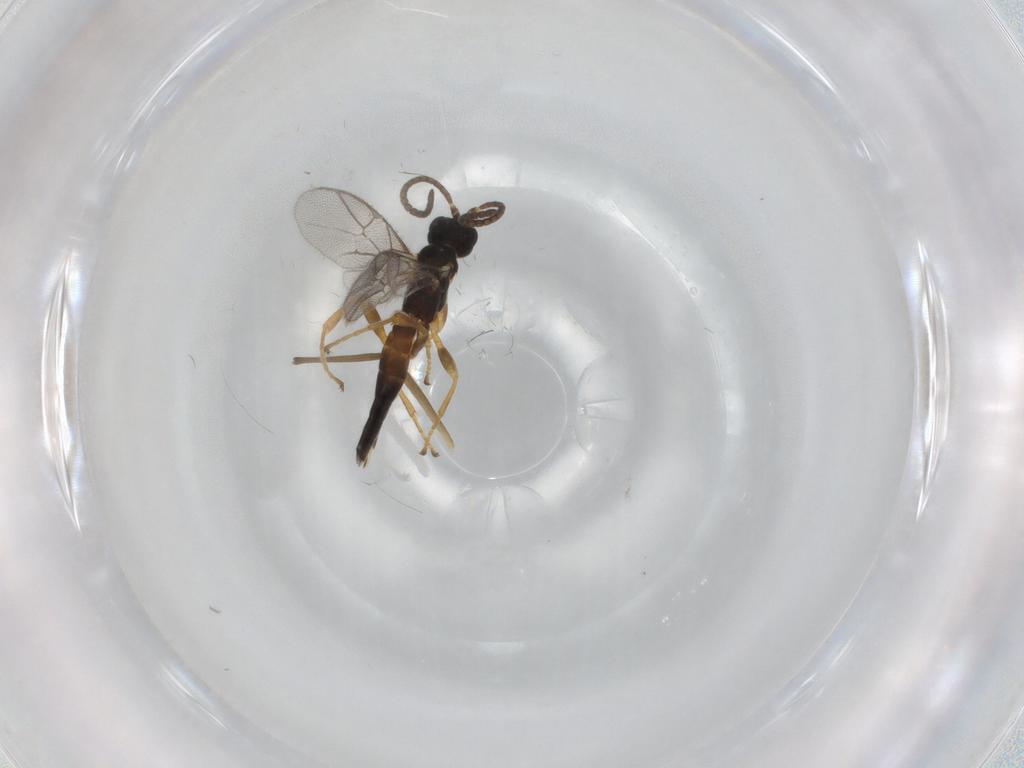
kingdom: Animalia
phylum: Arthropoda
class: Insecta
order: Hymenoptera
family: Ichneumonidae
